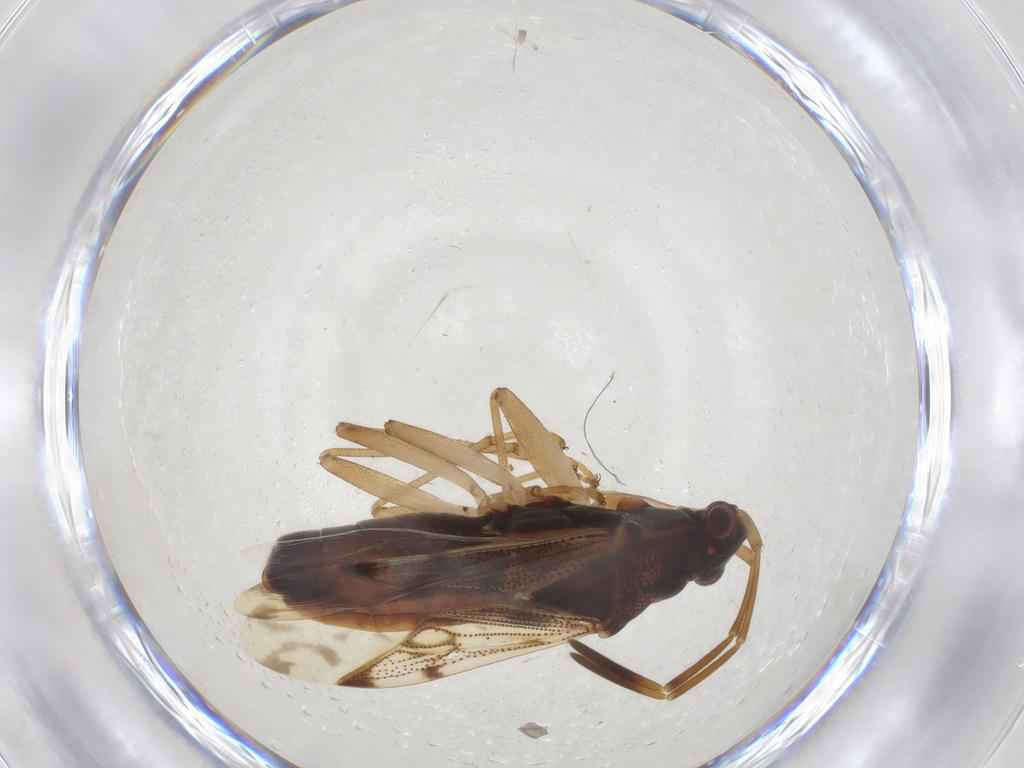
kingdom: Animalia
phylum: Arthropoda
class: Insecta
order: Hemiptera
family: Rhyparochromidae
